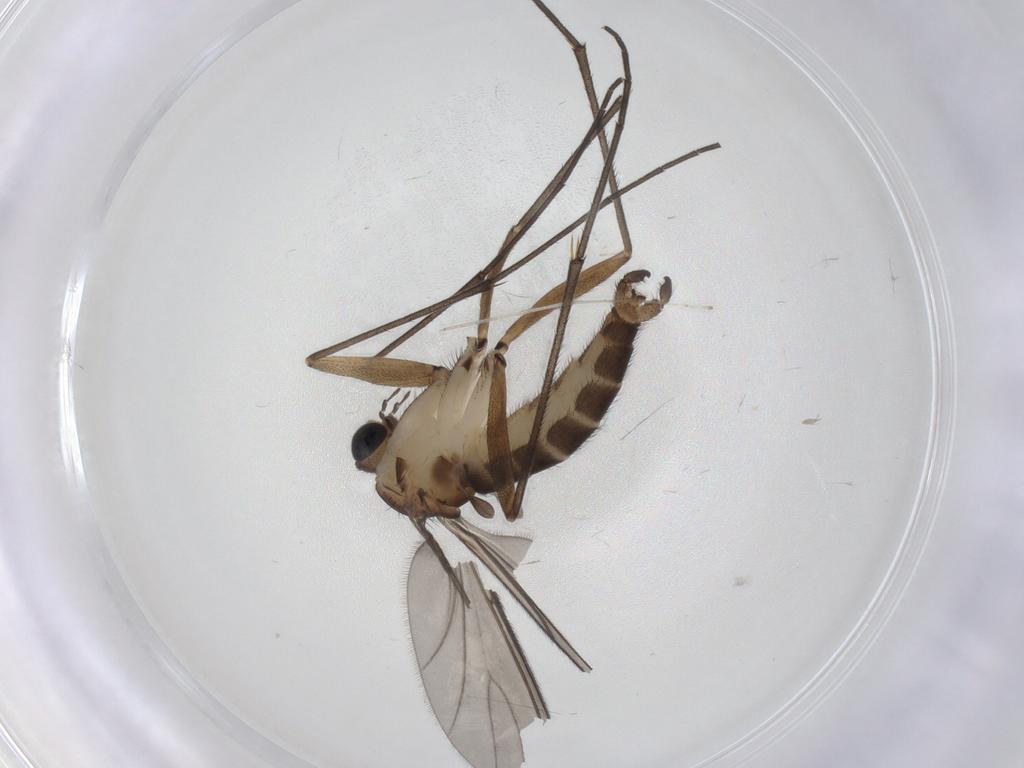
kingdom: Animalia
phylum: Arthropoda
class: Insecta
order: Diptera
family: Sciaridae
